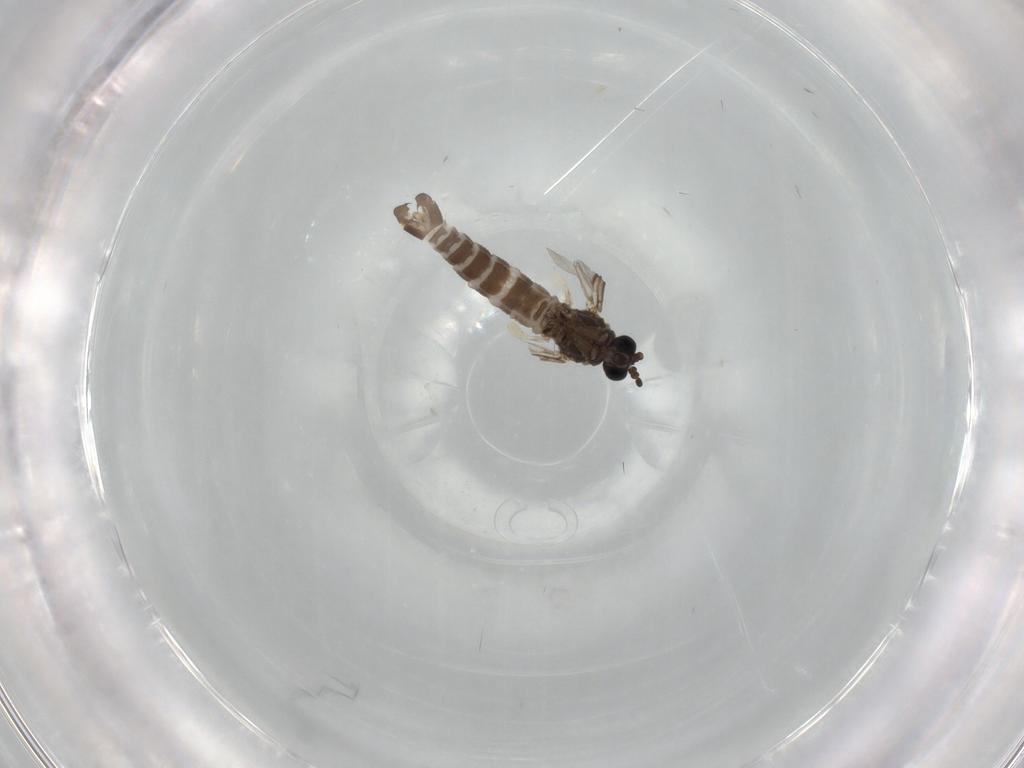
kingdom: Animalia
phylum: Arthropoda
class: Insecta
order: Diptera
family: Sciaridae
